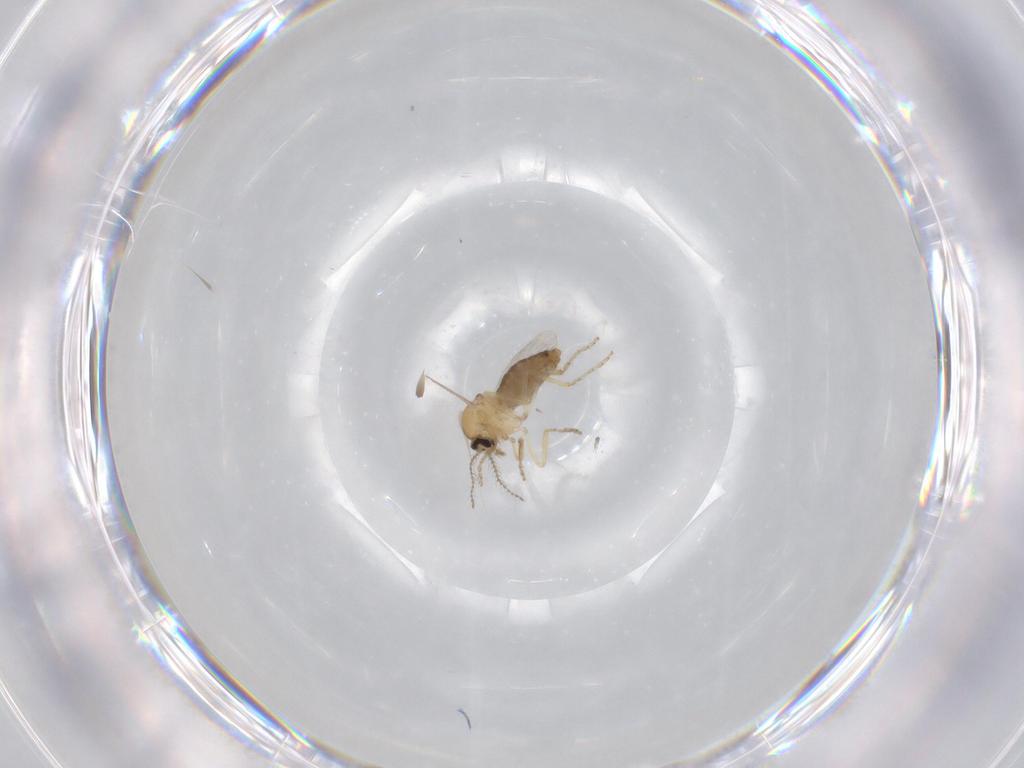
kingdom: Animalia
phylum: Arthropoda
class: Insecta
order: Diptera
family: Ceratopogonidae
